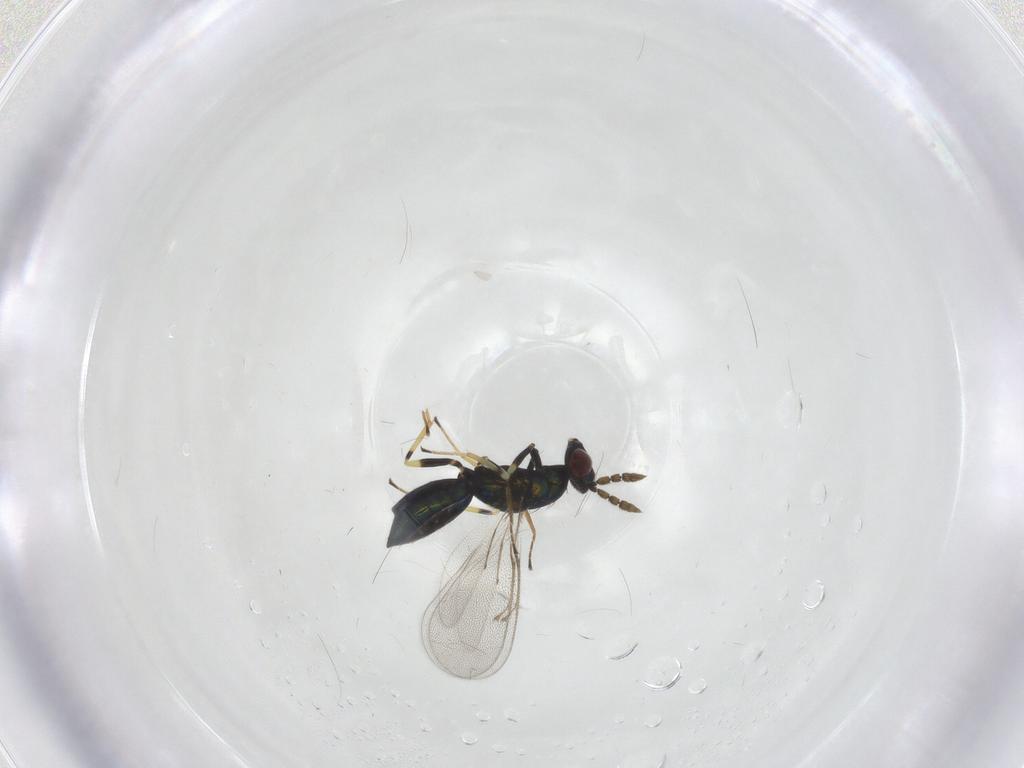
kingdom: Animalia
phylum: Arthropoda
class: Insecta
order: Hymenoptera
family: Eulophidae
